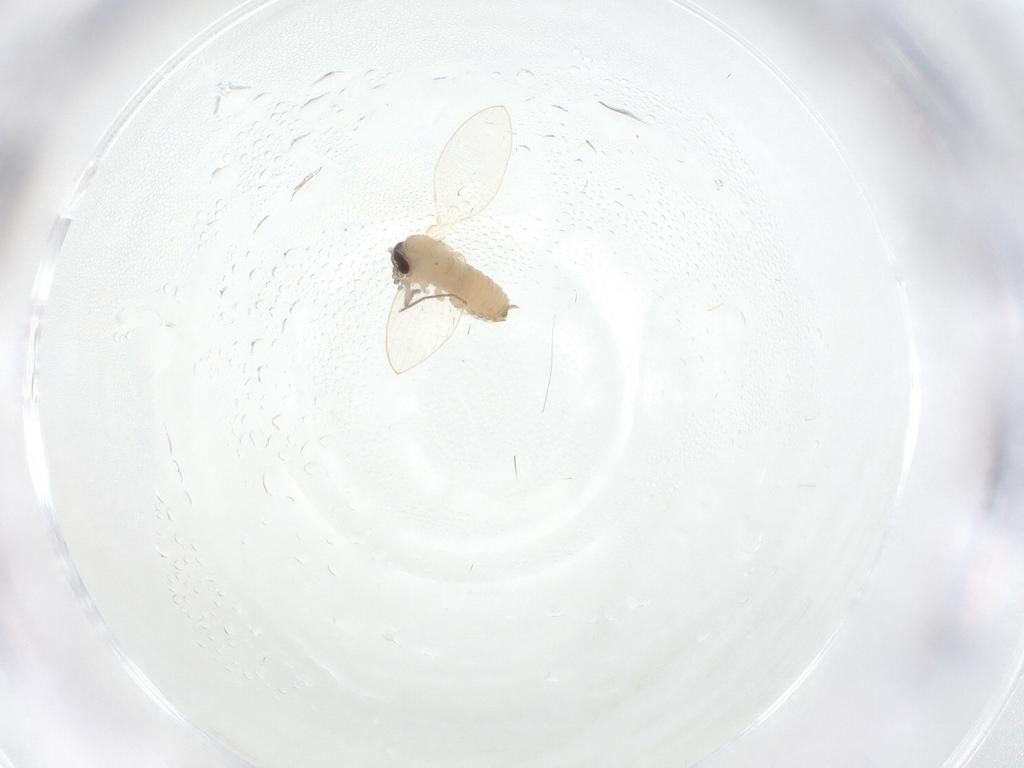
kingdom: Animalia
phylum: Arthropoda
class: Insecta
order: Diptera
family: Psychodidae
